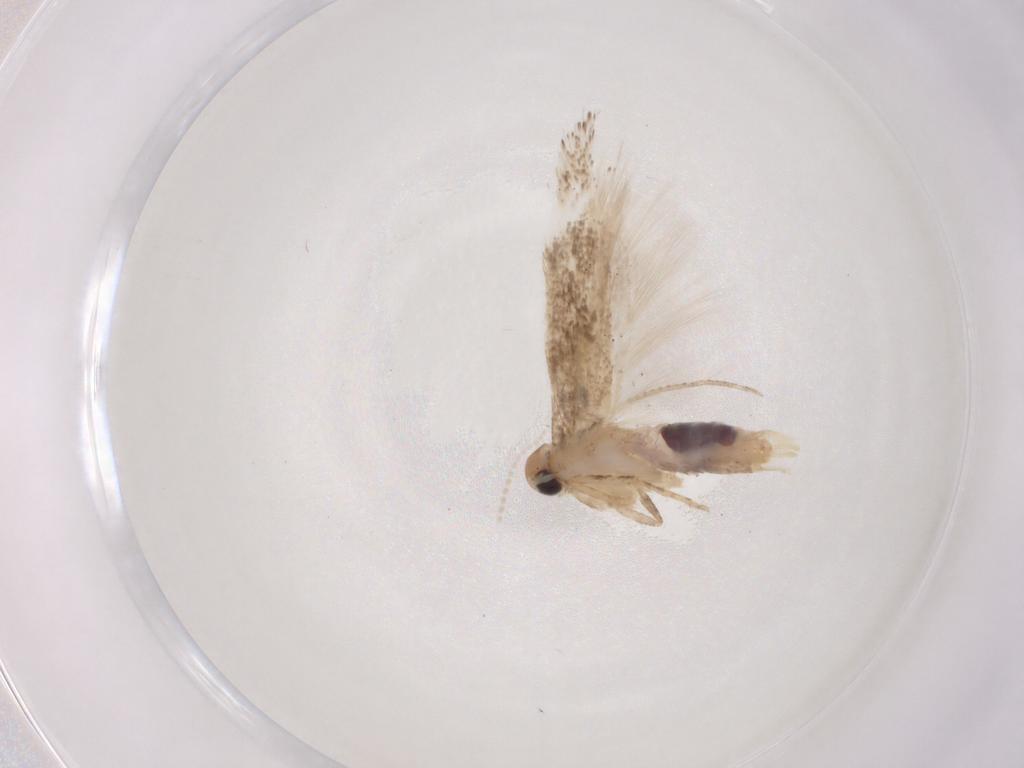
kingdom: Animalia
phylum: Arthropoda
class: Insecta
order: Lepidoptera
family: Gelechiidae
